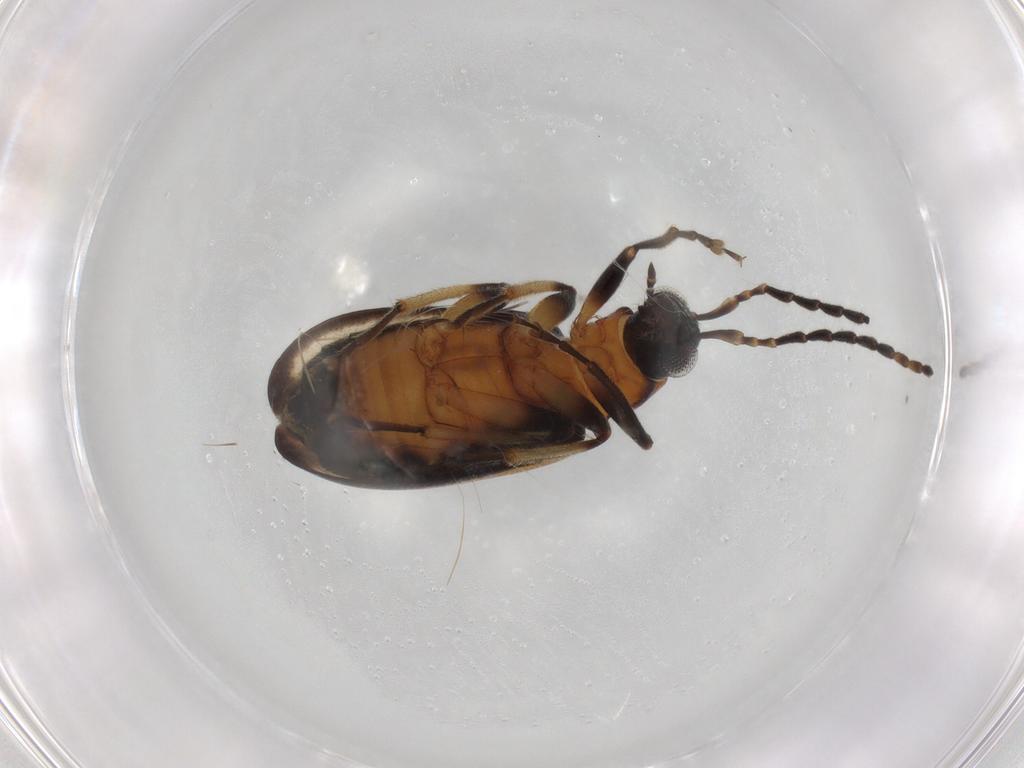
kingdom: Animalia
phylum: Arthropoda
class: Insecta
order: Coleoptera
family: Chrysomelidae
